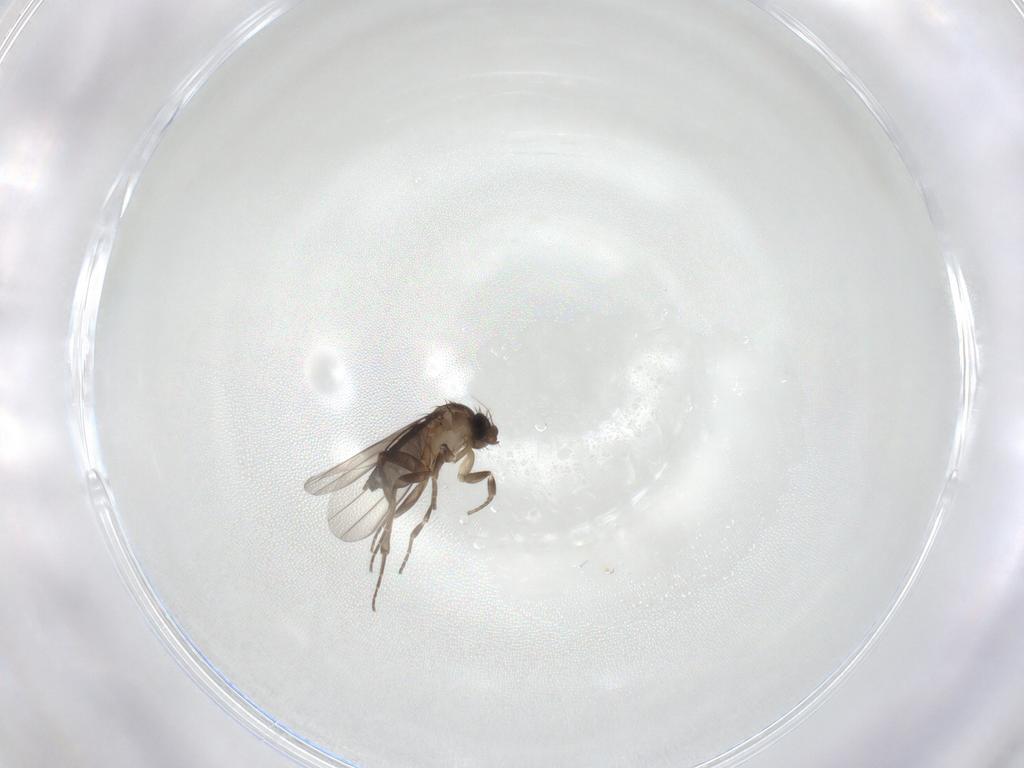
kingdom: Animalia
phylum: Arthropoda
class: Insecta
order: Diptera
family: Phoridae
